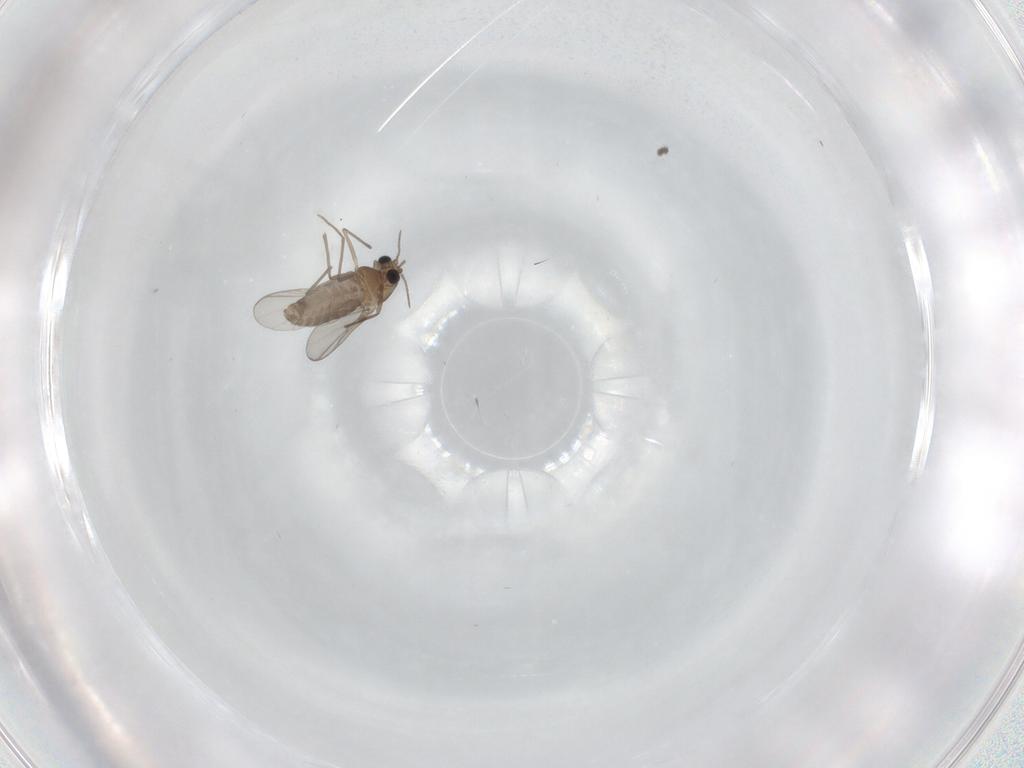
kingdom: Animalia
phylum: Arthropoda
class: Insecta
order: Diptera
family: Chironomidae
